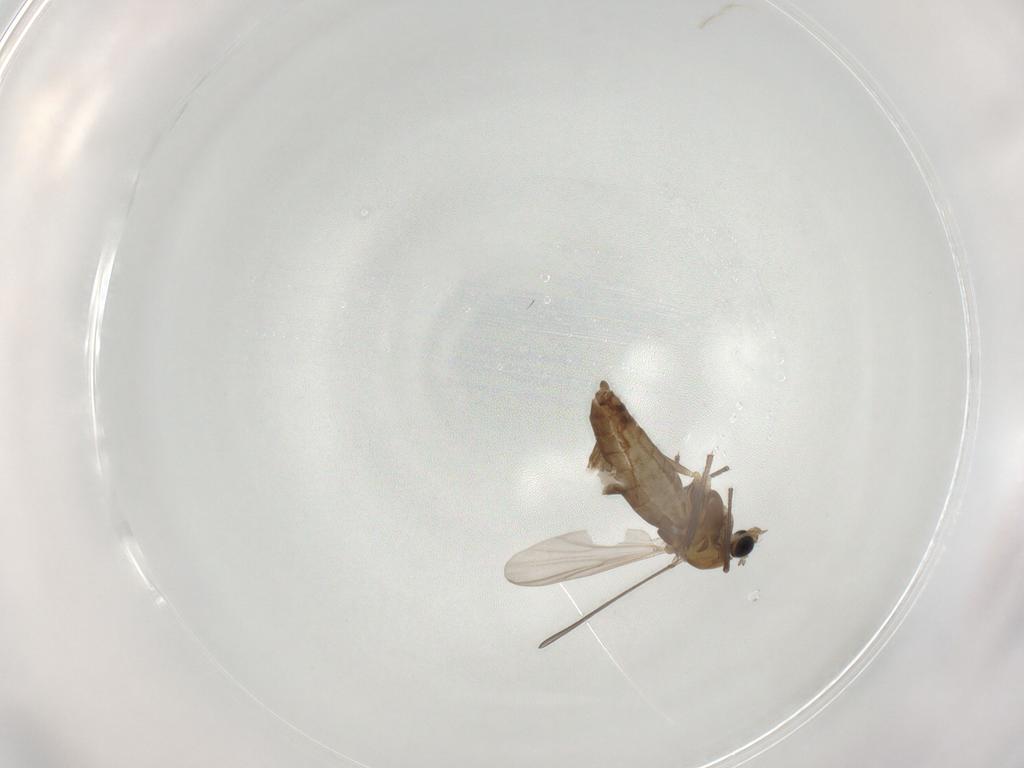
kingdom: Animalia
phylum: Arthropoda
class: Insecta
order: Diptera
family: Chironomidae
